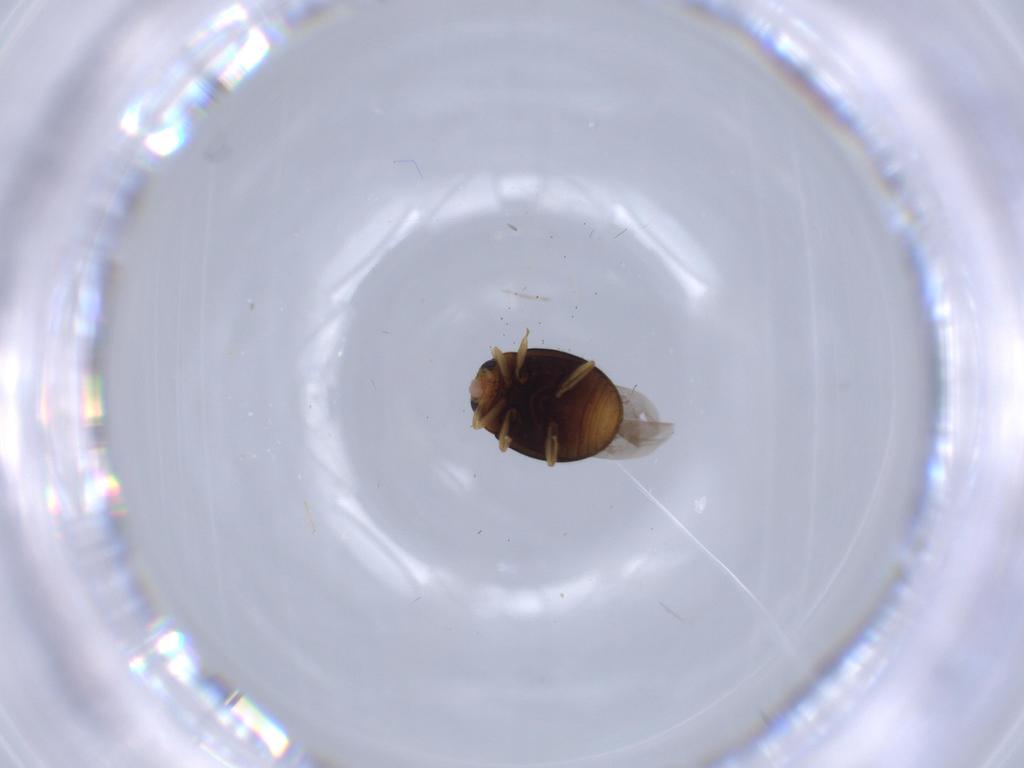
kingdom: Animalia
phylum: Arthropoda
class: Insecta
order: Coleoptera
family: Coccinellidae
